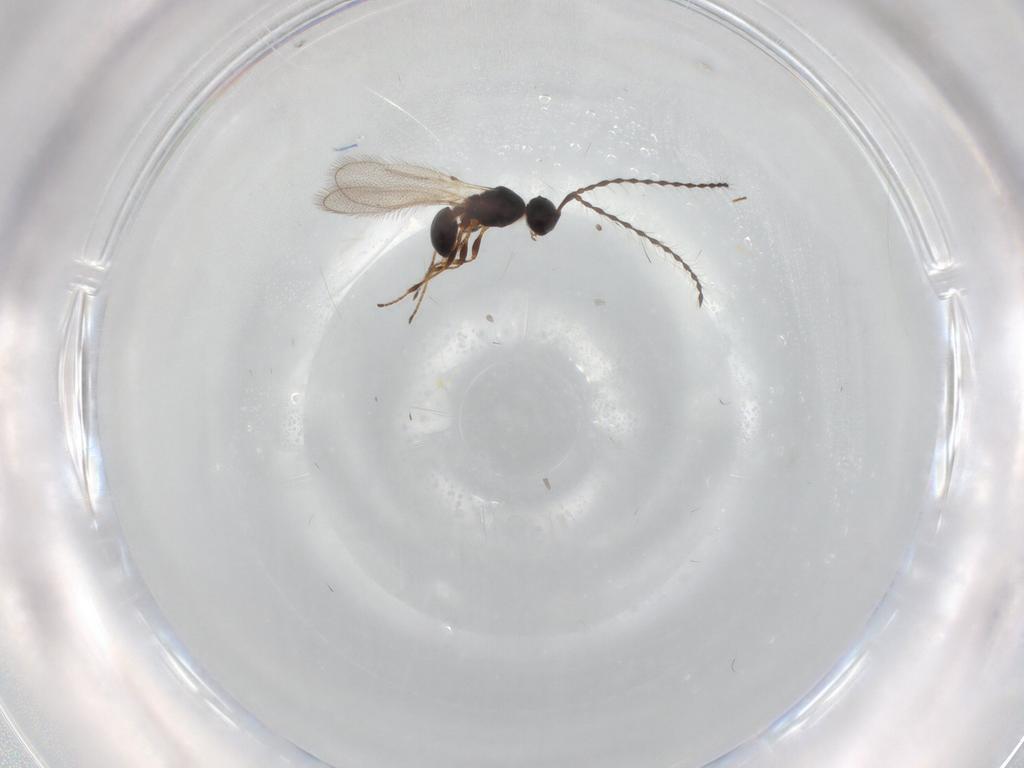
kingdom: Animalia
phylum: Arthropoda
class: Insecta
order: Hymenoptera
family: Diapriidae
